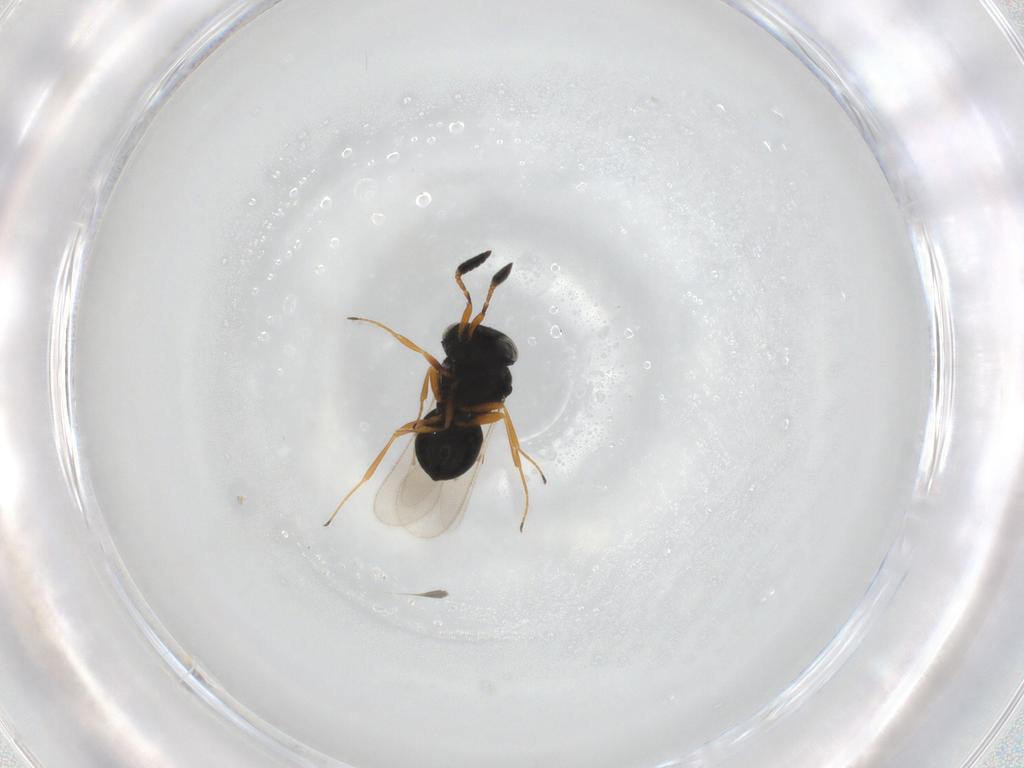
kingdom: Animalia
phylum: Arthropoda
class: Insecta
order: Hymenoptera
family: Scelionidae
